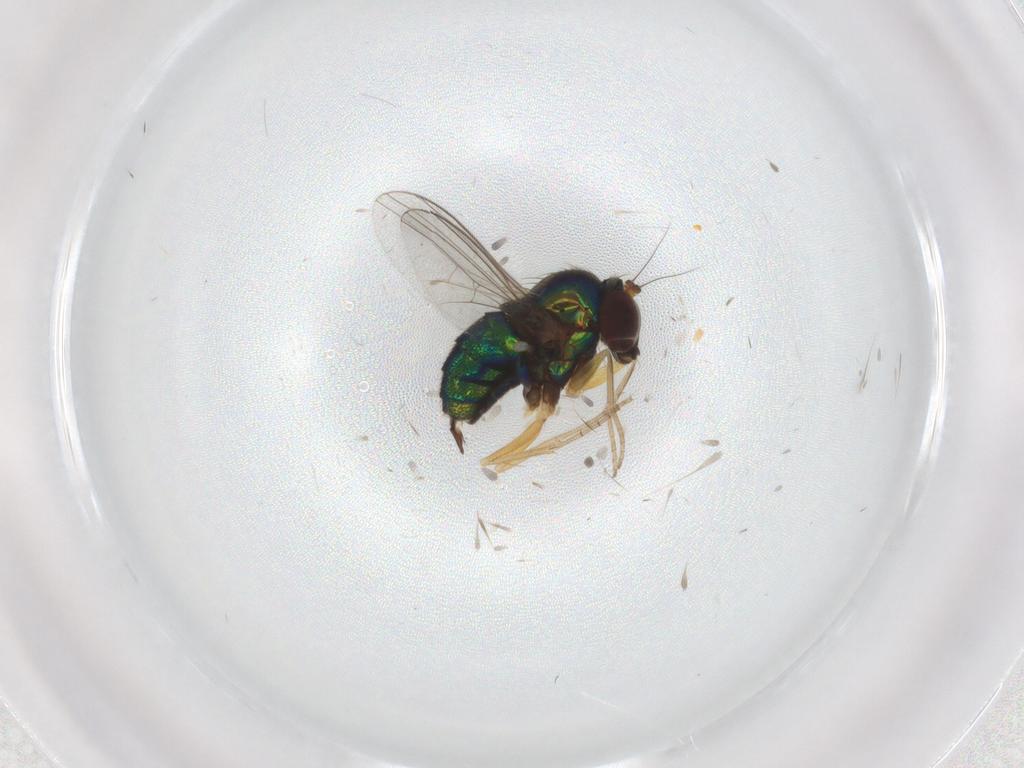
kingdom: Animalia
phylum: Arthropoda
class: Insecta
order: Diptera
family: Dolichopodidae
